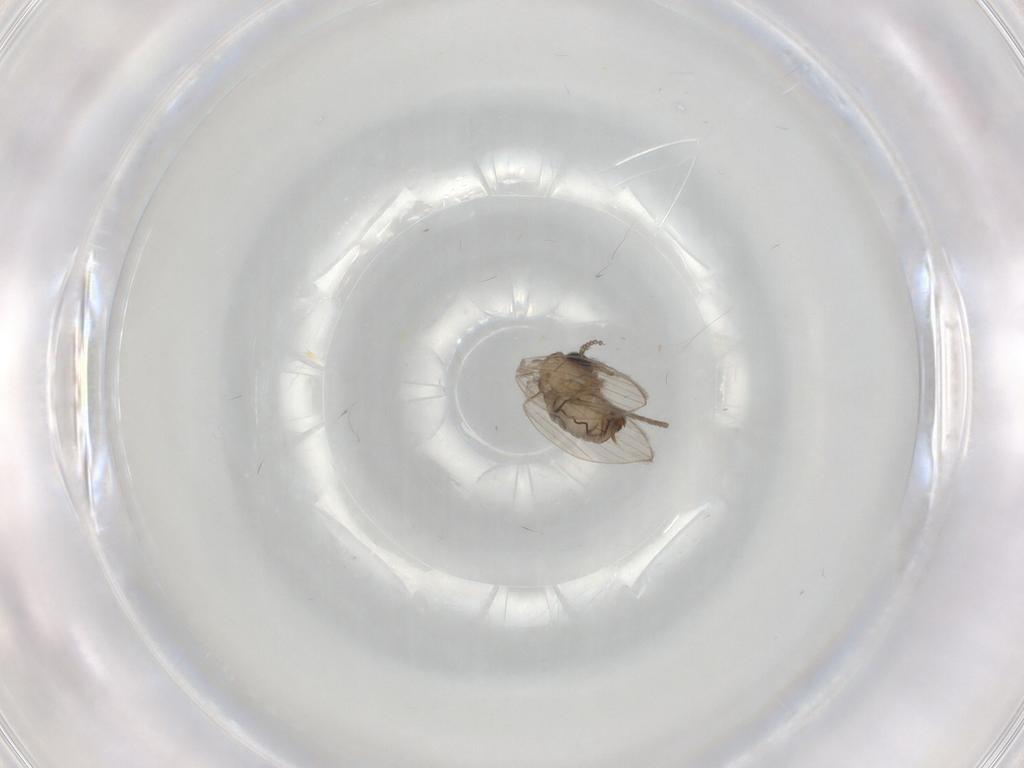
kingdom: Animalia
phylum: Arthropoda
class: Insecta
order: Diptera
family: Psychodidae
